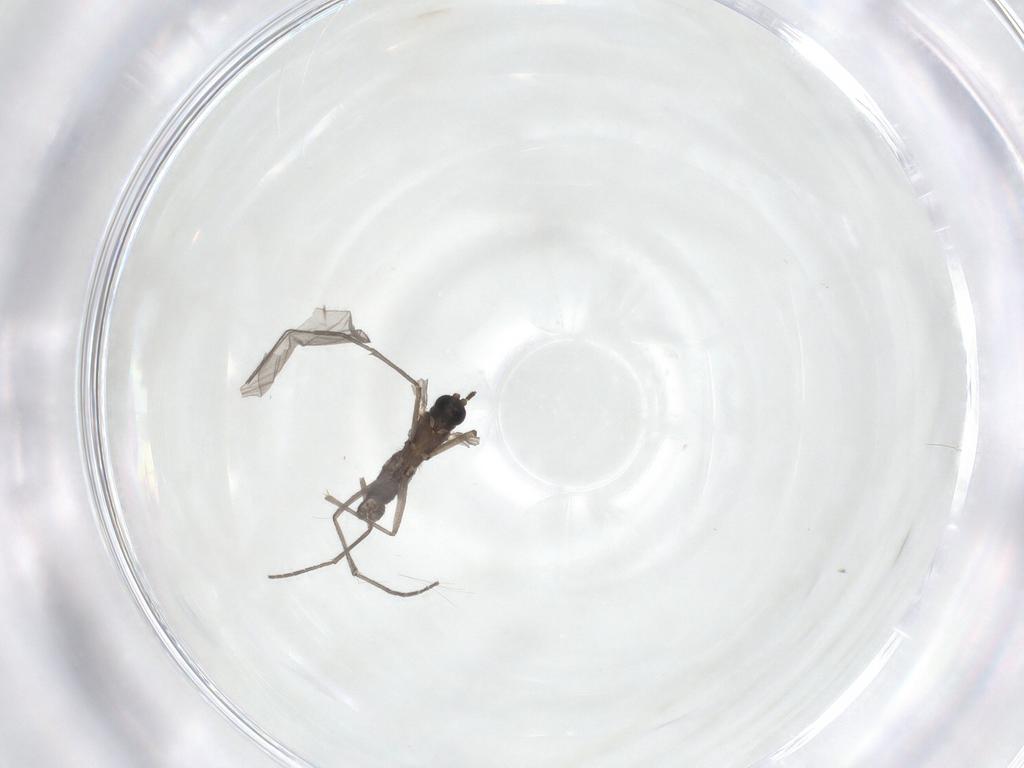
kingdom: Animalia
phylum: Arthropoda
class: Insecta
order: Diptera
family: Sciaridae
